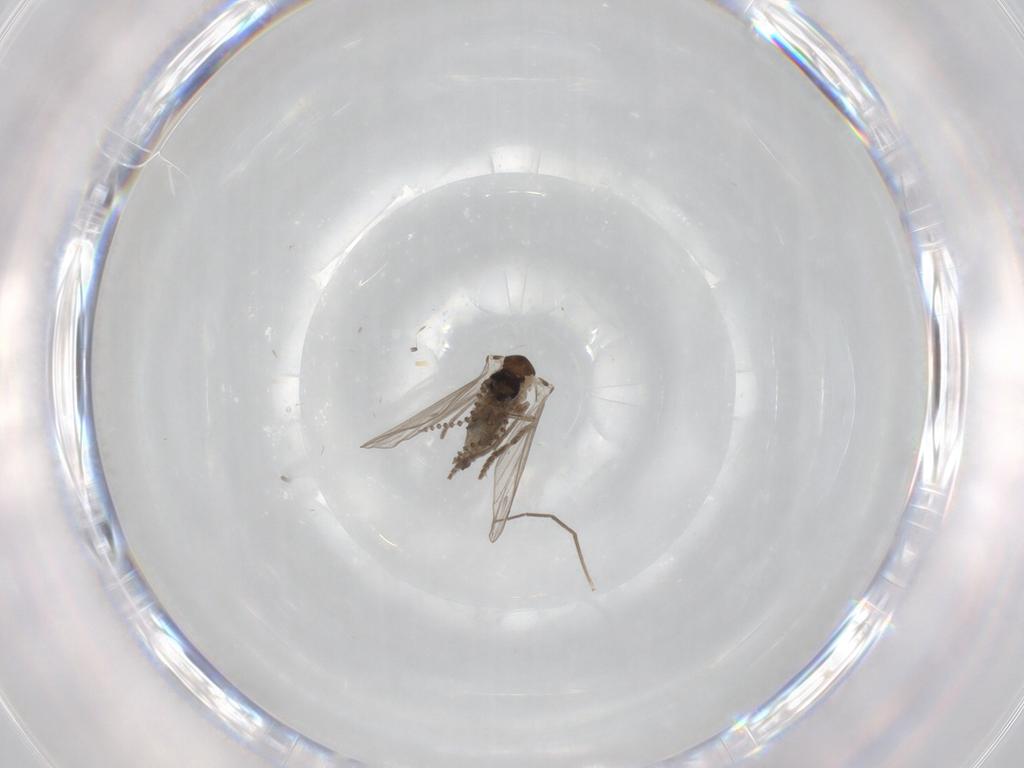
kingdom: Animalia
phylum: Arthropoda
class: Insecta
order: Diptera
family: Psychodidae
